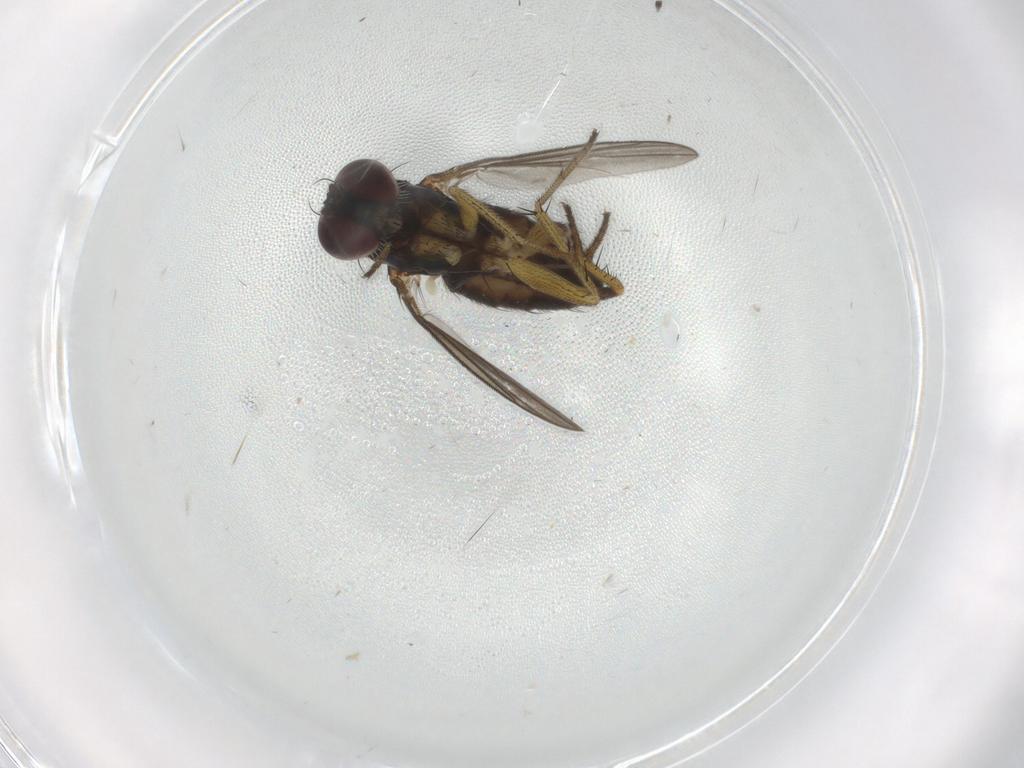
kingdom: Animalia
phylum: Arthropoda
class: Insecta
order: Diptera
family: Dolichopodidae
